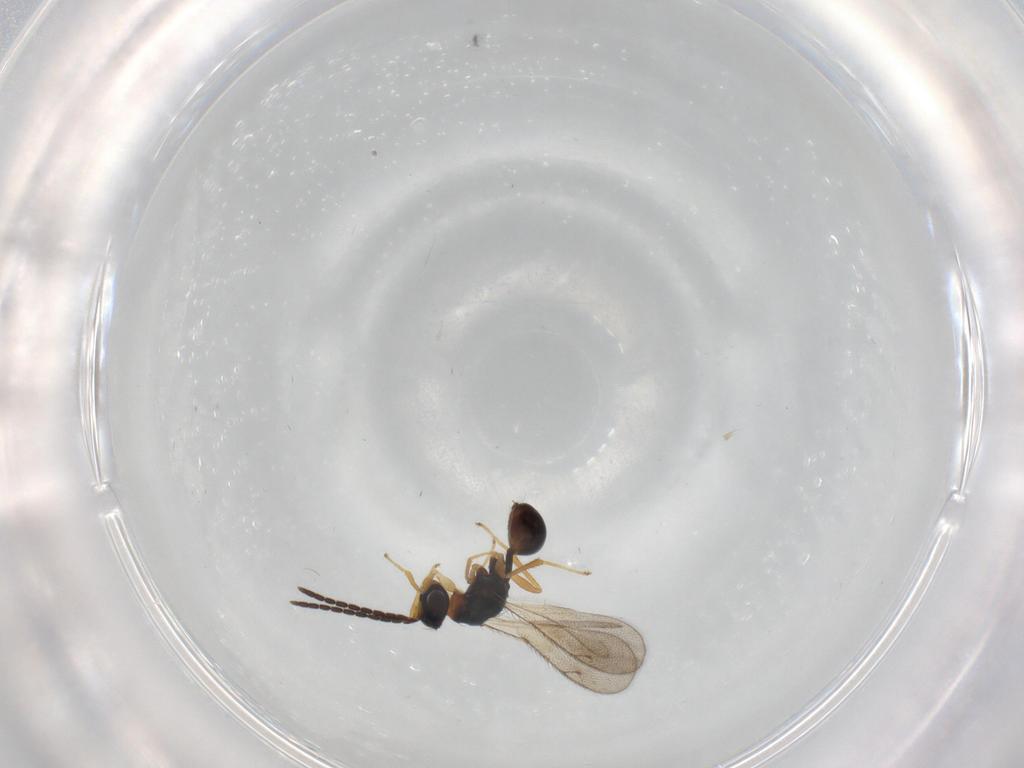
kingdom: Animalia
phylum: Arthropoda
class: Insecta
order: Hymenoptera
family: Diparidae
